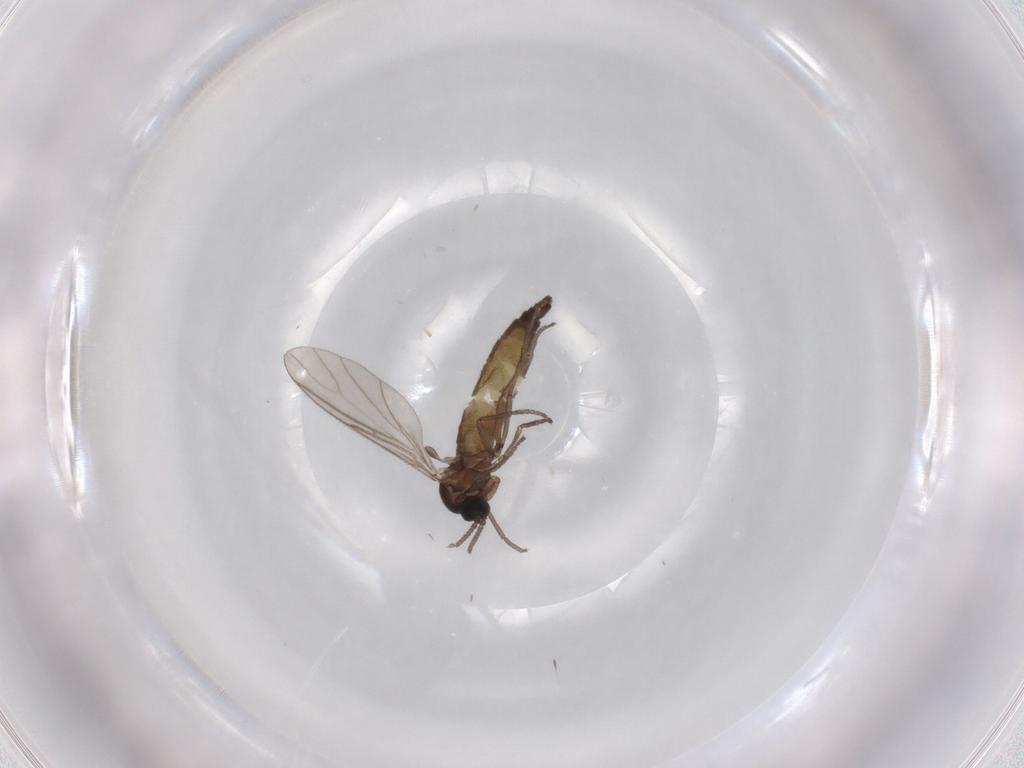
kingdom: Animalia
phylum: Arthropoda
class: Insecta
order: Diptera
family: Sciaridae
